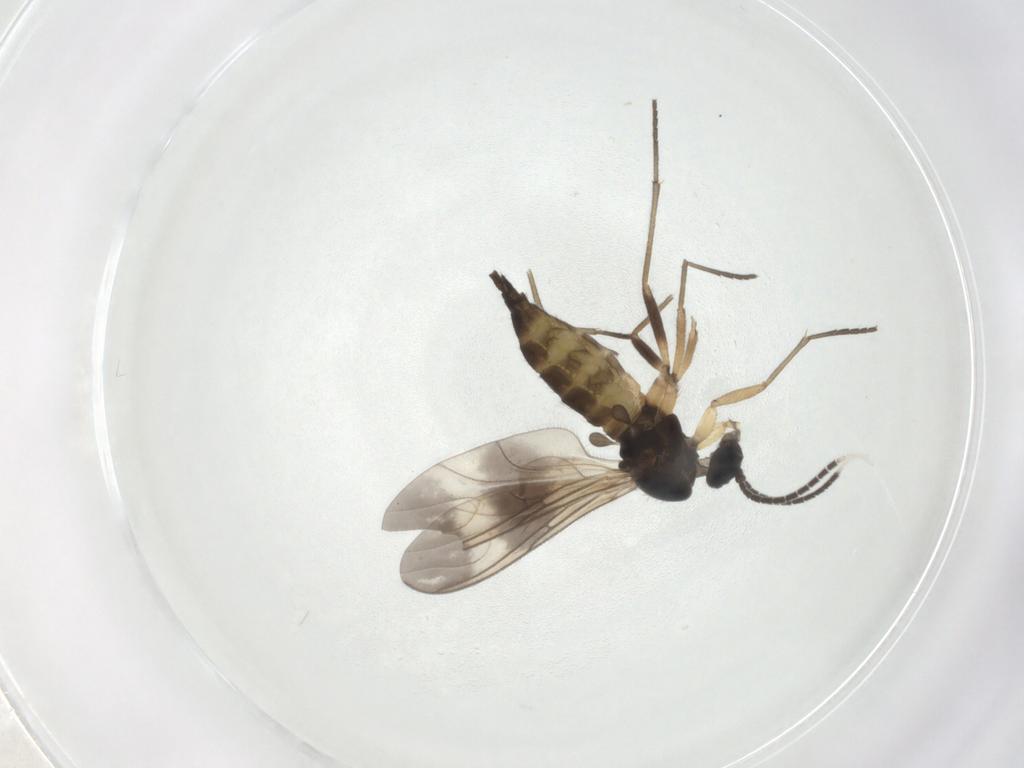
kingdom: Animalia
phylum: Arthropoda
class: Insecta
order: Diptera
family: Sciaridae
